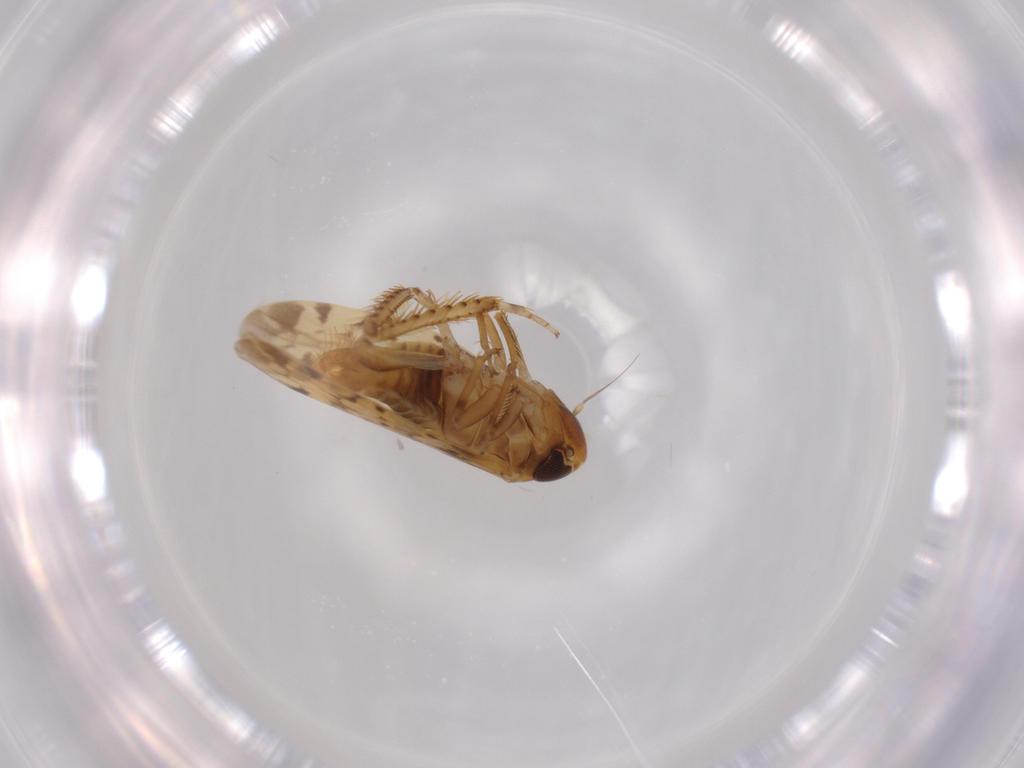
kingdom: Animalia
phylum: Arthropoda
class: Insecta
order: Hemiptera
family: Cicadellidae
